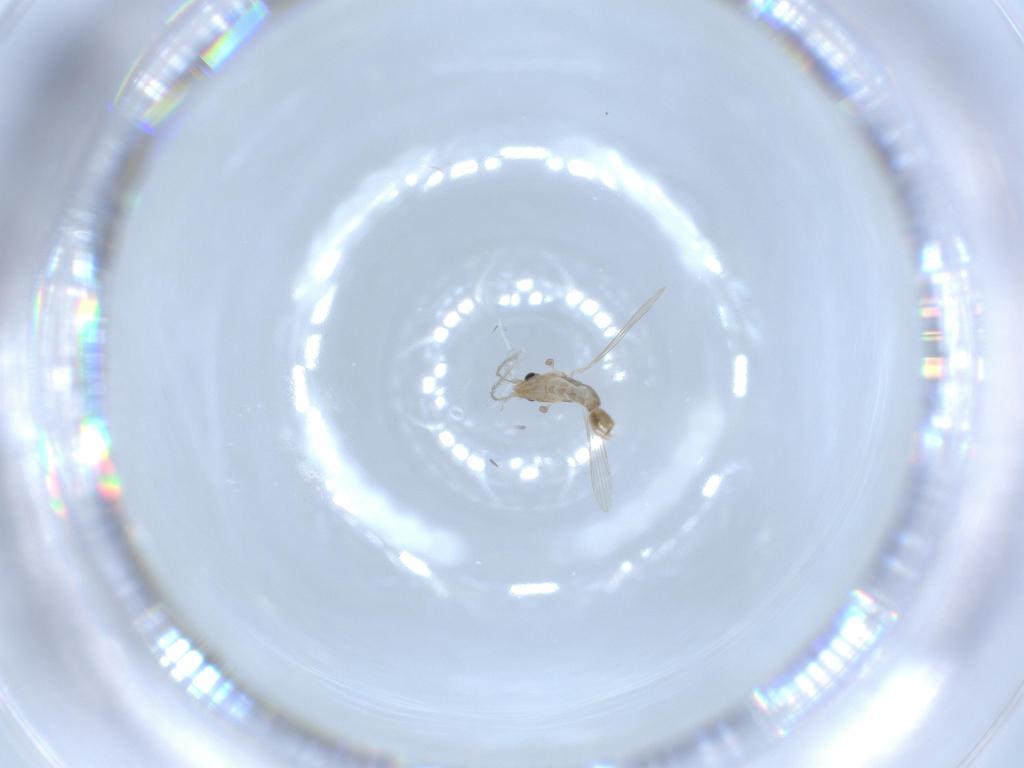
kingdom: Animalia
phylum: Arthropoda
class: Insecta
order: Diptera
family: Psychodidae
